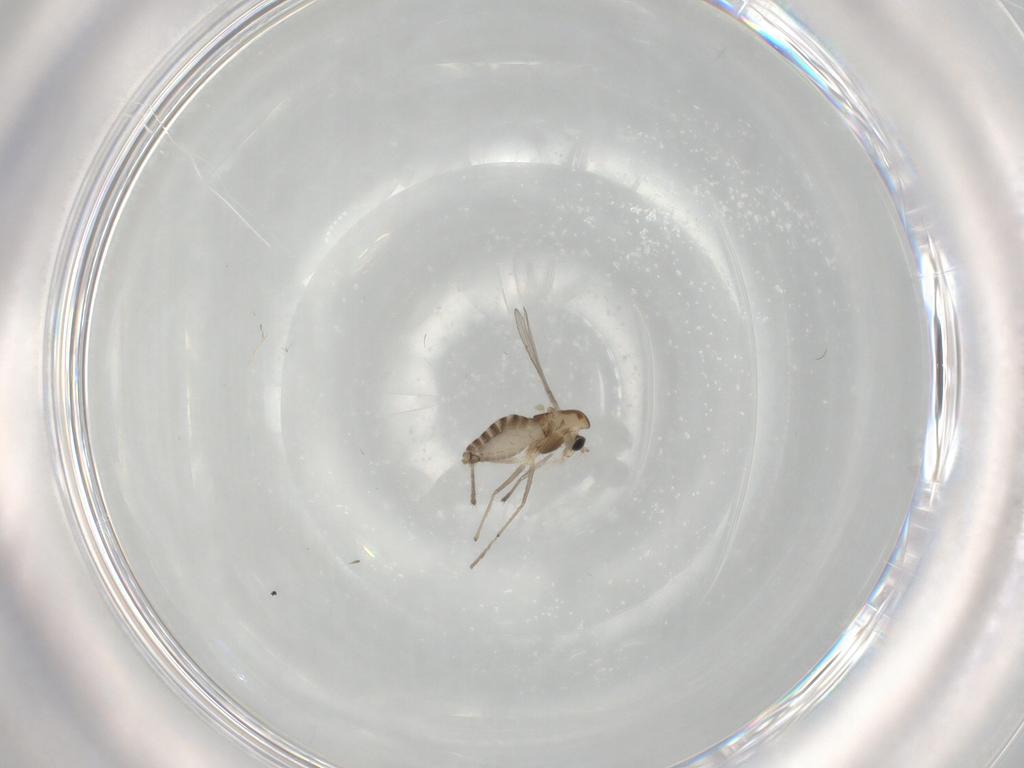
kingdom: Animalia
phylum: Arthropoda
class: Insecta
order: Diptera
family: Chironomidae
